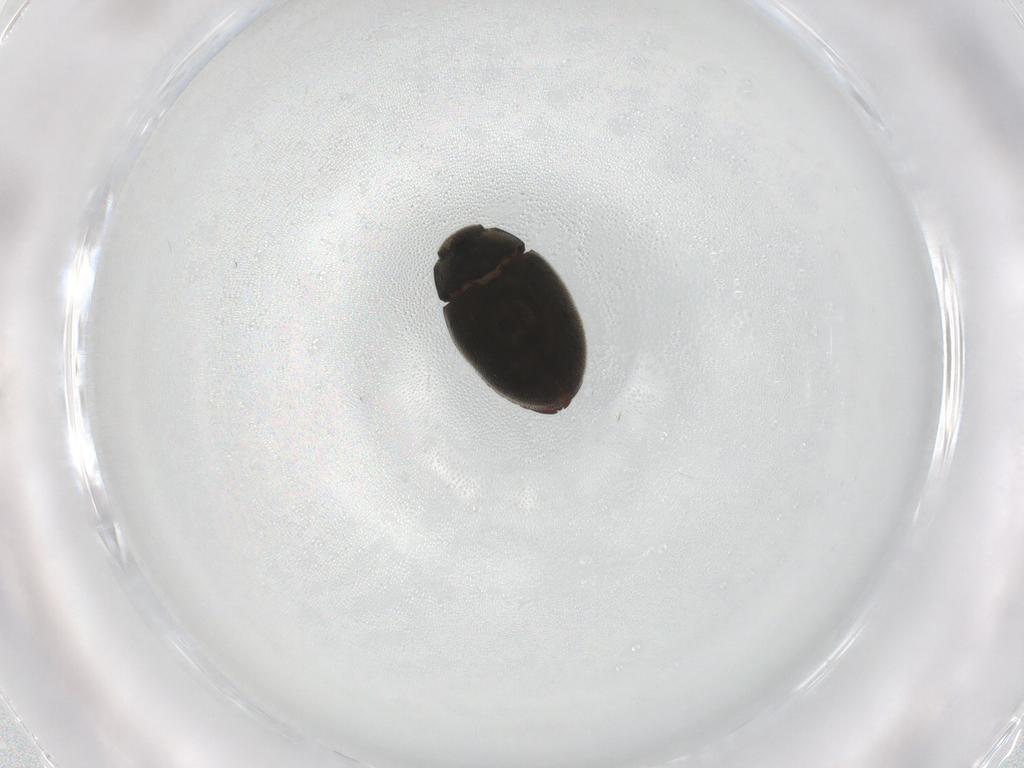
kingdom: Animalia
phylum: Arthropoda
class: Insecta
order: Coleoptera
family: Limnichidae
